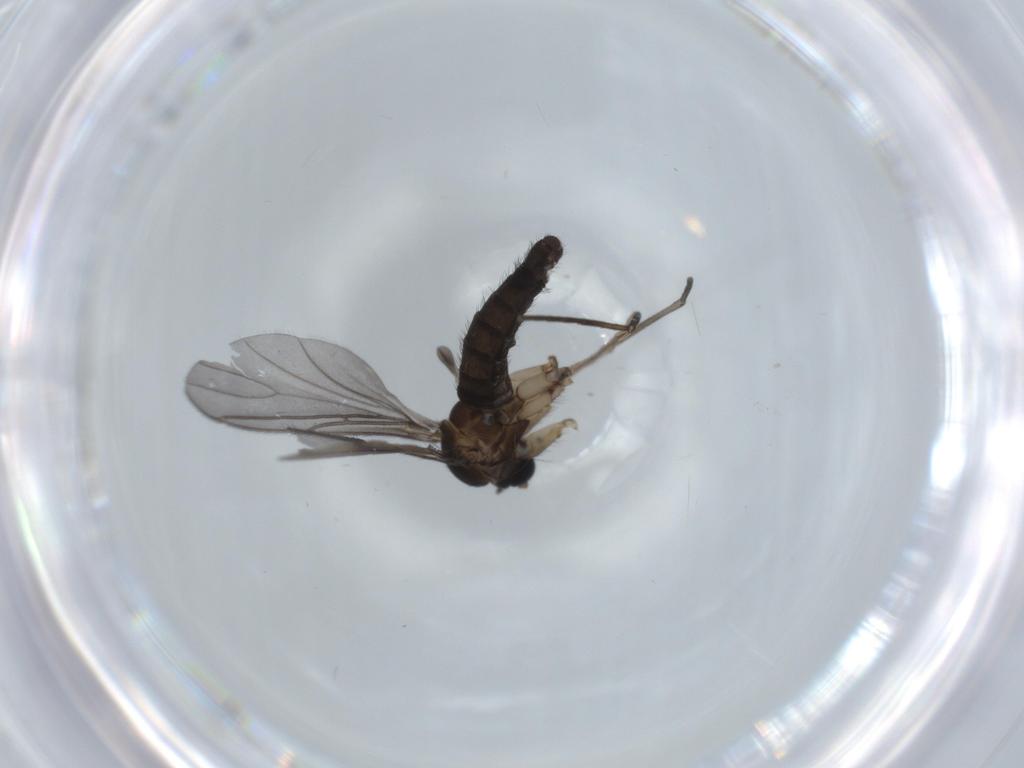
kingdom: Animalia
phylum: Arthropoda
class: Insecta
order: Diptera
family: Sciaridae
